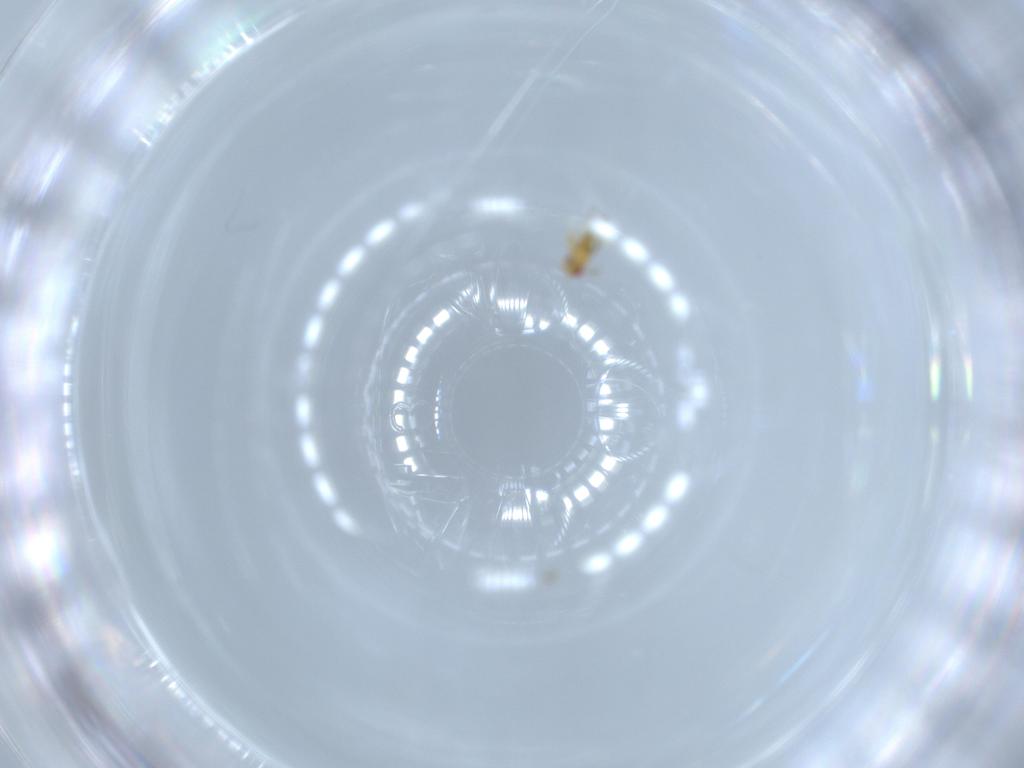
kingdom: Animalia
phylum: Arthropoda
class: Insecta
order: Hymenoptera
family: Trichogrammatidae
